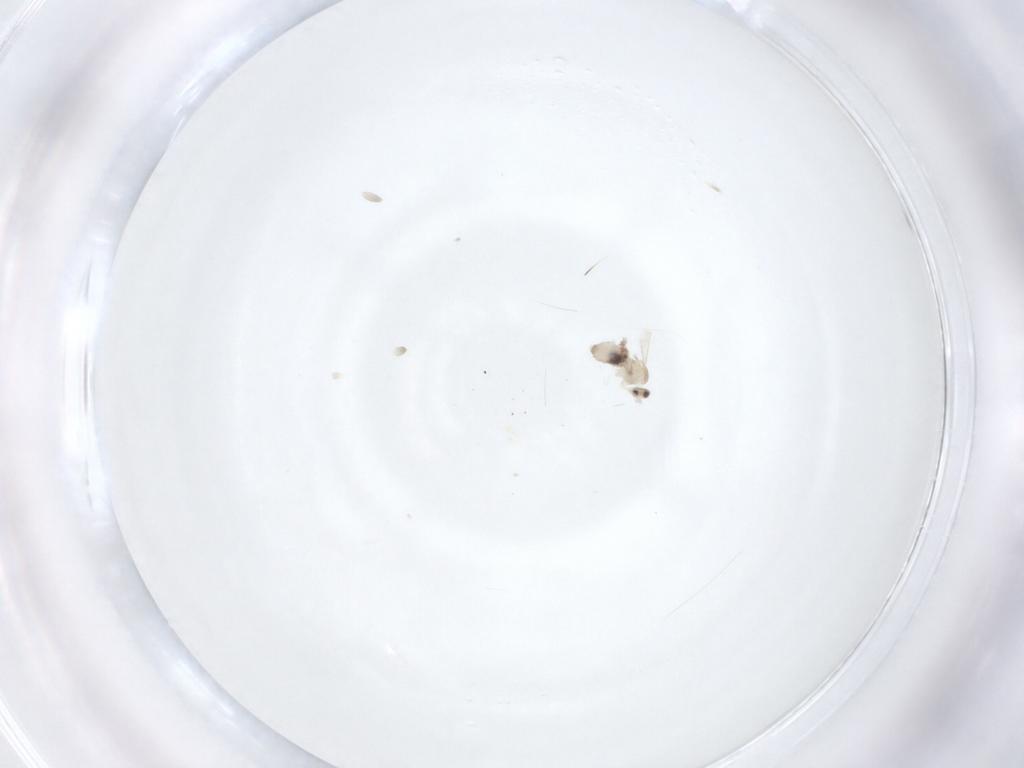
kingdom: Animalia
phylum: Arthropoda
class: Insecta
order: Diptera
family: Cecidomyiidae
